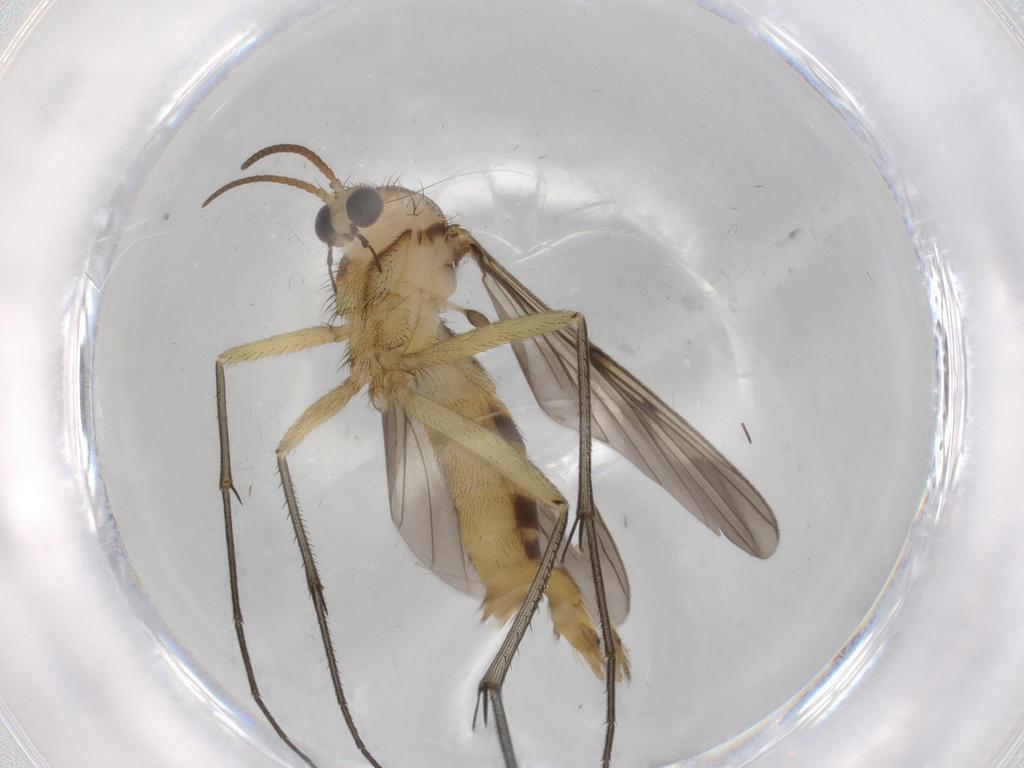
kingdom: Animalia
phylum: Arthropoda
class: Insecta
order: Diptera
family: Mycetophilidae
